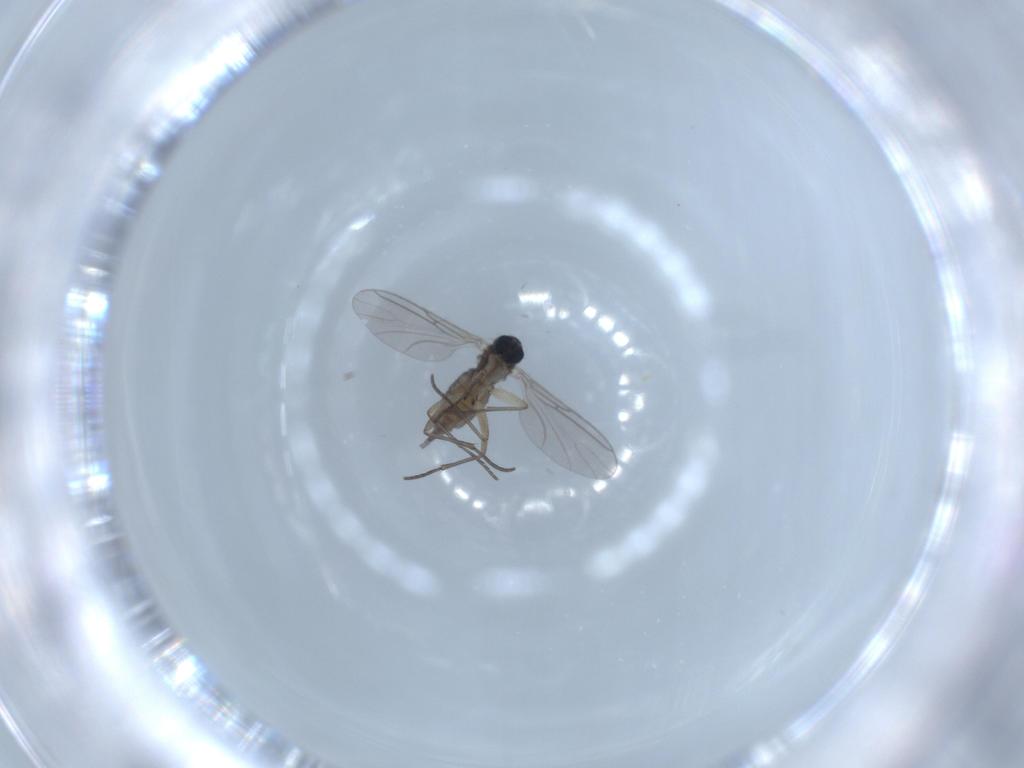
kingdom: Animalia
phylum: Arthropoda
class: Insecta
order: Diptera
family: Sciaridae
